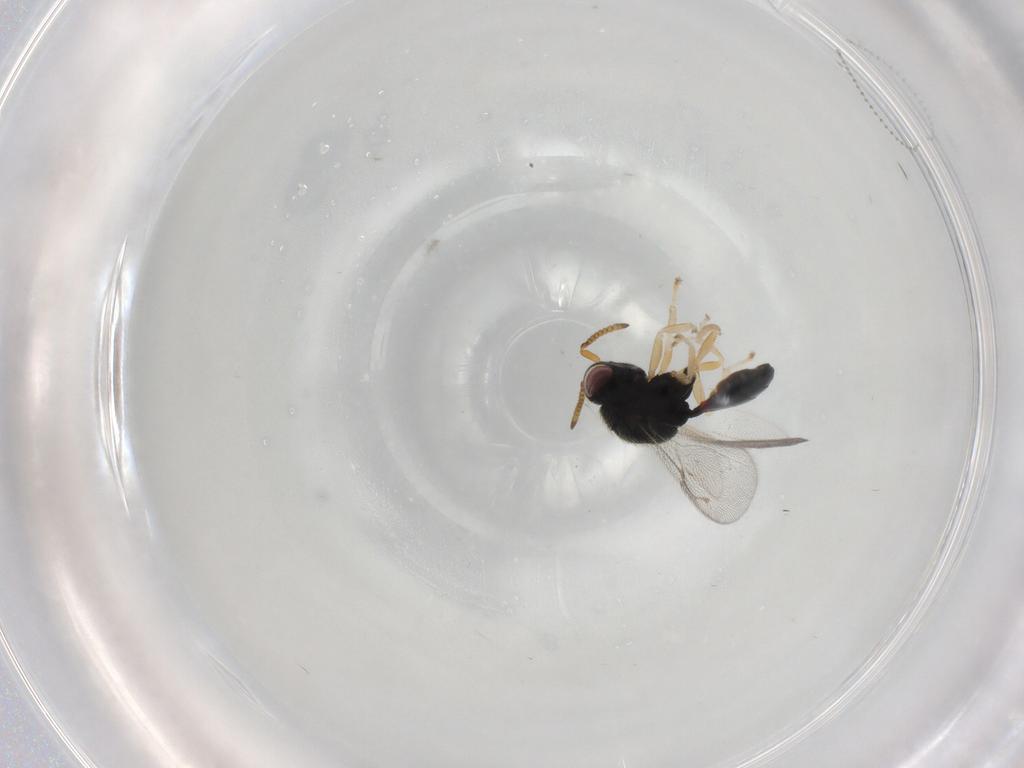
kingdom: Animalia
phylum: Arthropoda
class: Insecta
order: Hymenoptera
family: Eurytomidae
